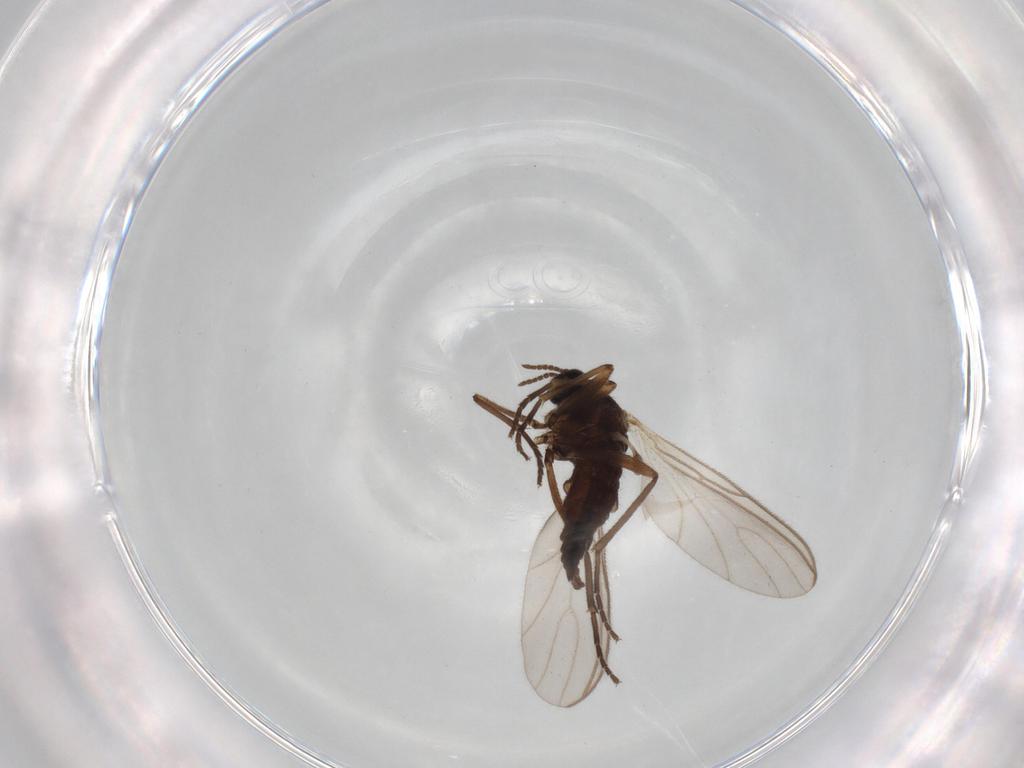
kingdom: Animalia
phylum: Arthropoda
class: Insecta
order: Diptera
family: Sciaridae
